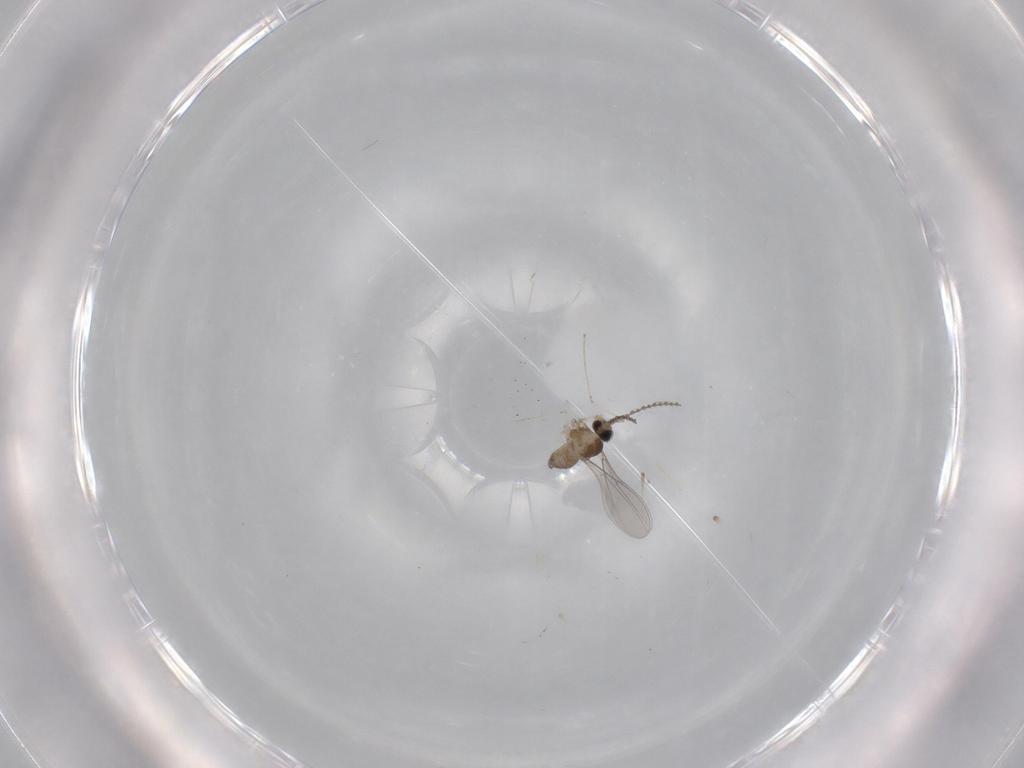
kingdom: Animalia
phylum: Arthropoda
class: Insecta
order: Diptera
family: Cecidomyiidae
